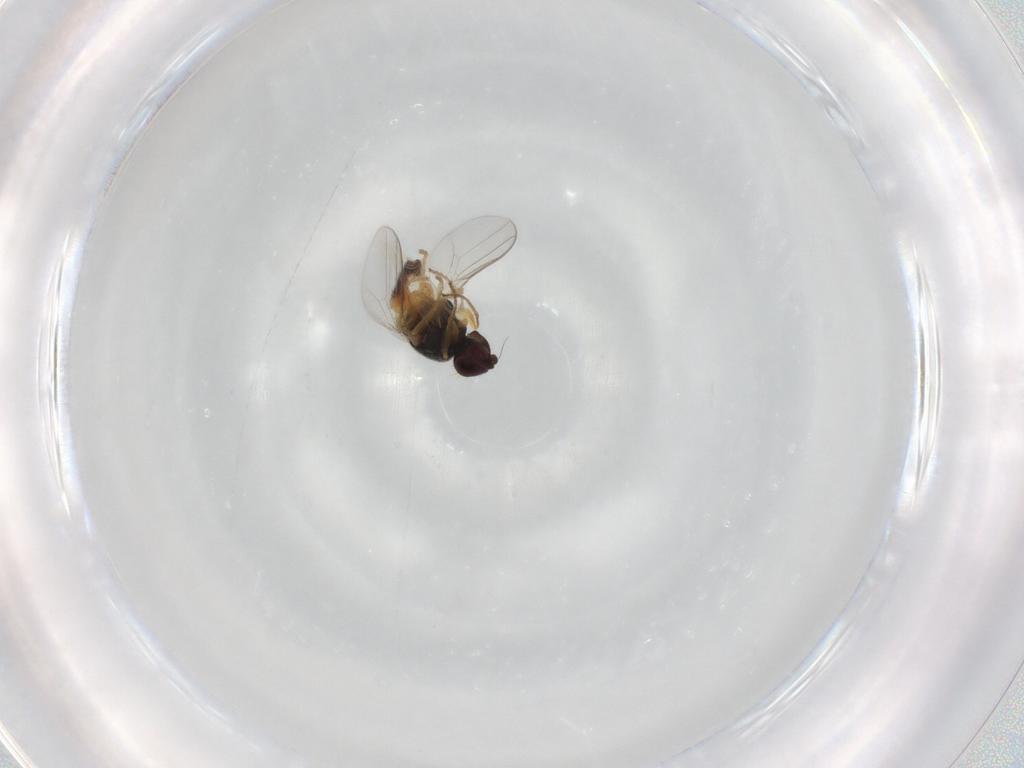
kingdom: Animalia
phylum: Arthropoda
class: Insecta
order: Diptera
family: Chloropidae
